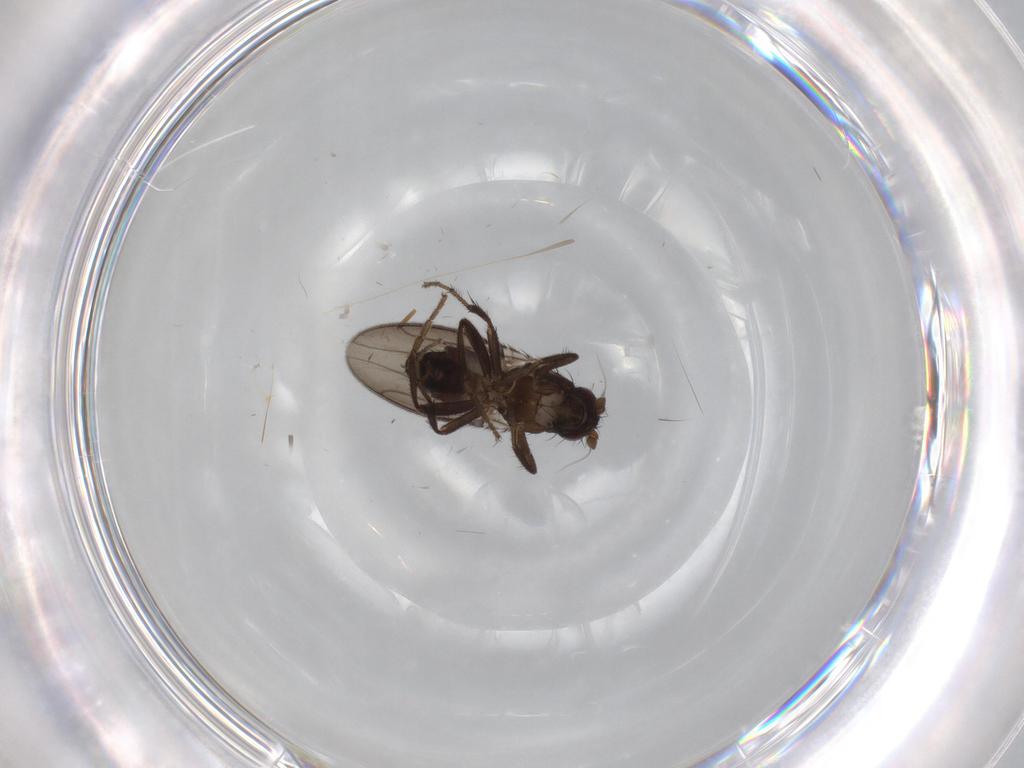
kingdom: Animalia
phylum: Arthropoda
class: Insecta
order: Diptera
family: Sphaeroceridae
